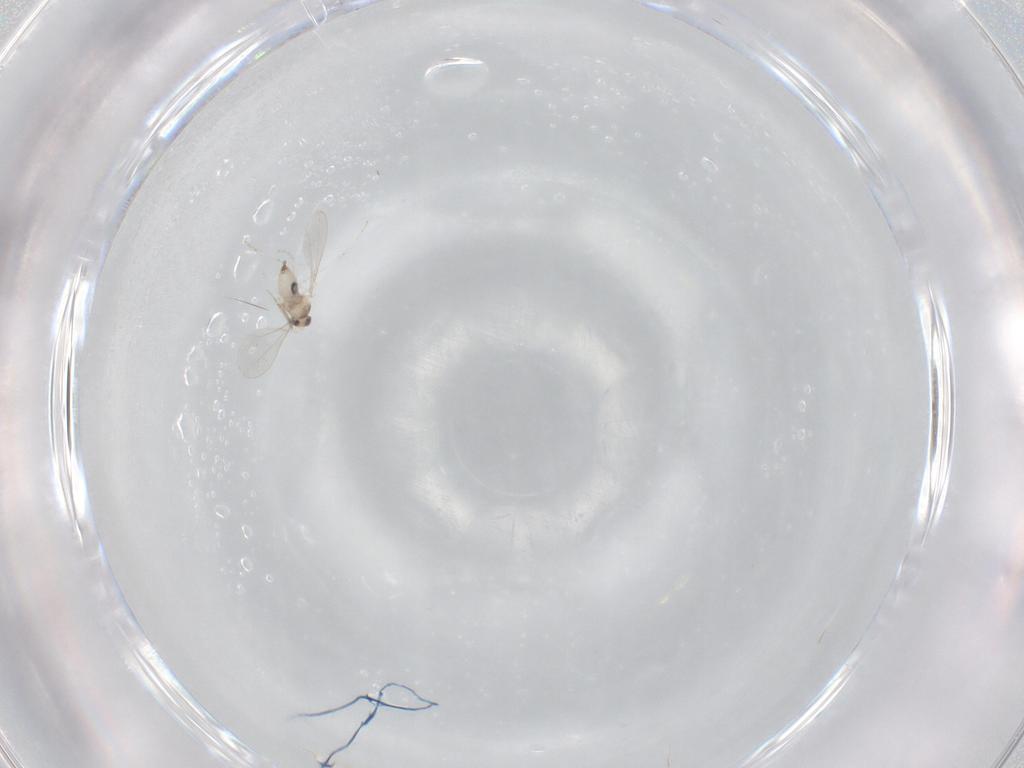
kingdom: Animalia
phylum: Arthropoda
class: Insecta
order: Diptera
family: Cecidomyiidae
